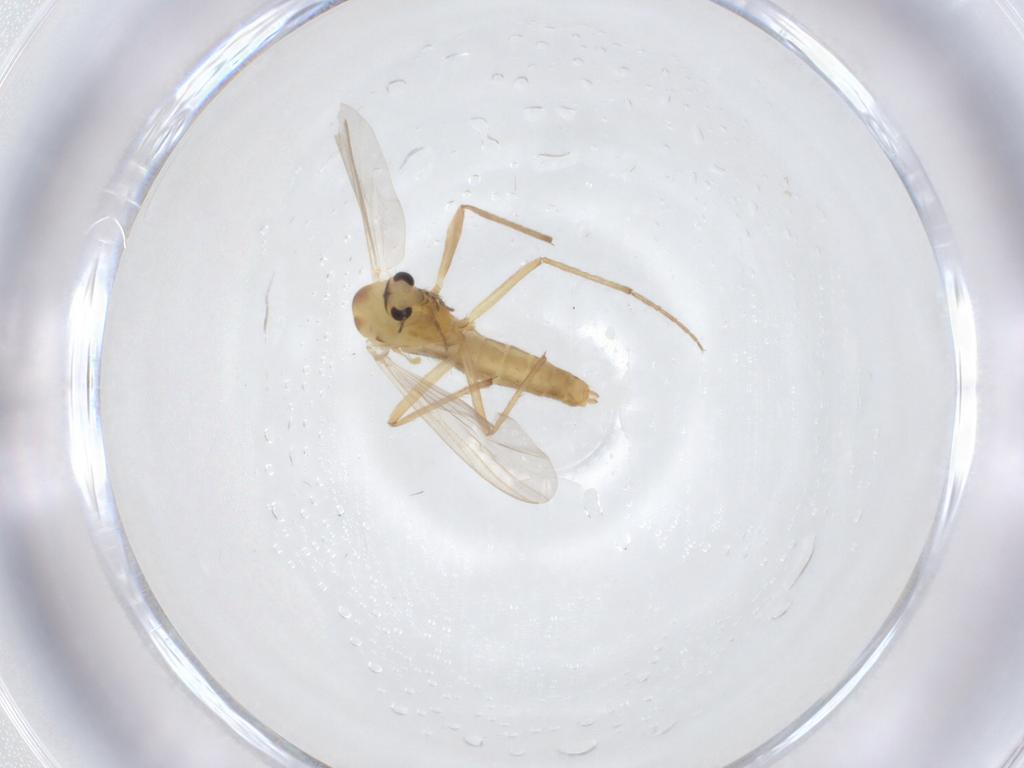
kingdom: Animalia
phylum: Arthropoda
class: Insecta
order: Diptera
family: Chironomidae
